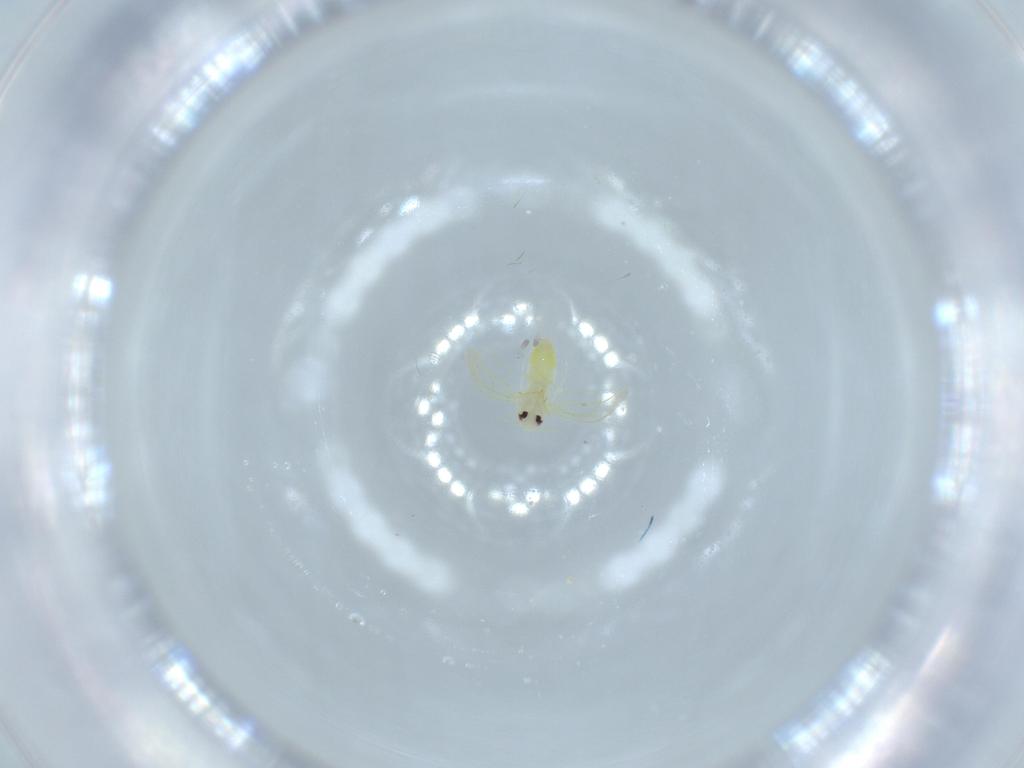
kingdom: Animalia
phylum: Arthropoda
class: Insecta
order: Hemiptera
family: Aleyrodidae
